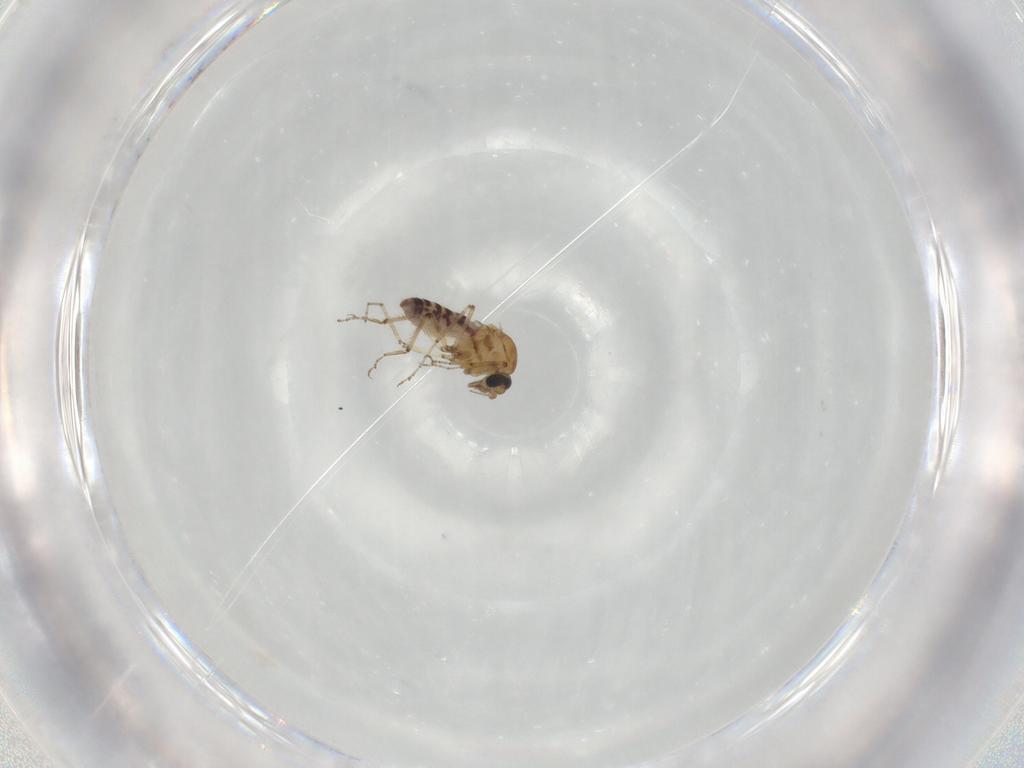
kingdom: Animalia
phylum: Arthropoda
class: Insecta
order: Diptera
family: Ceratopogonidae
